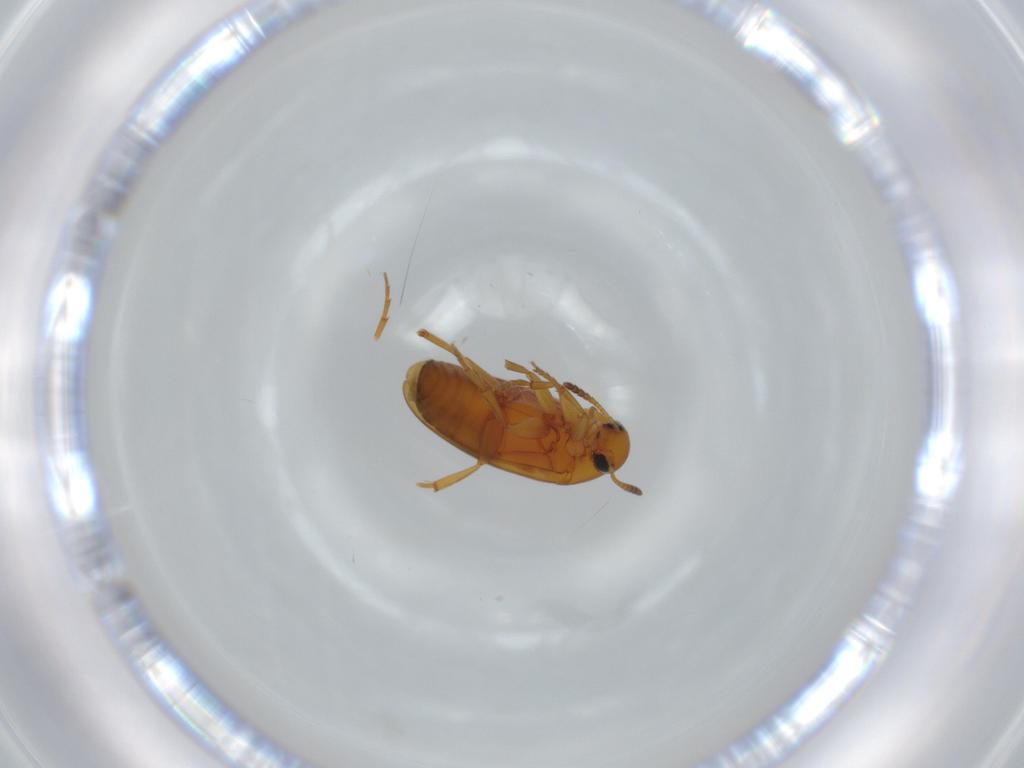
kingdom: Animalia
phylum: Arthropoda
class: Insecta
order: Coleoptera
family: Scraptiidae
